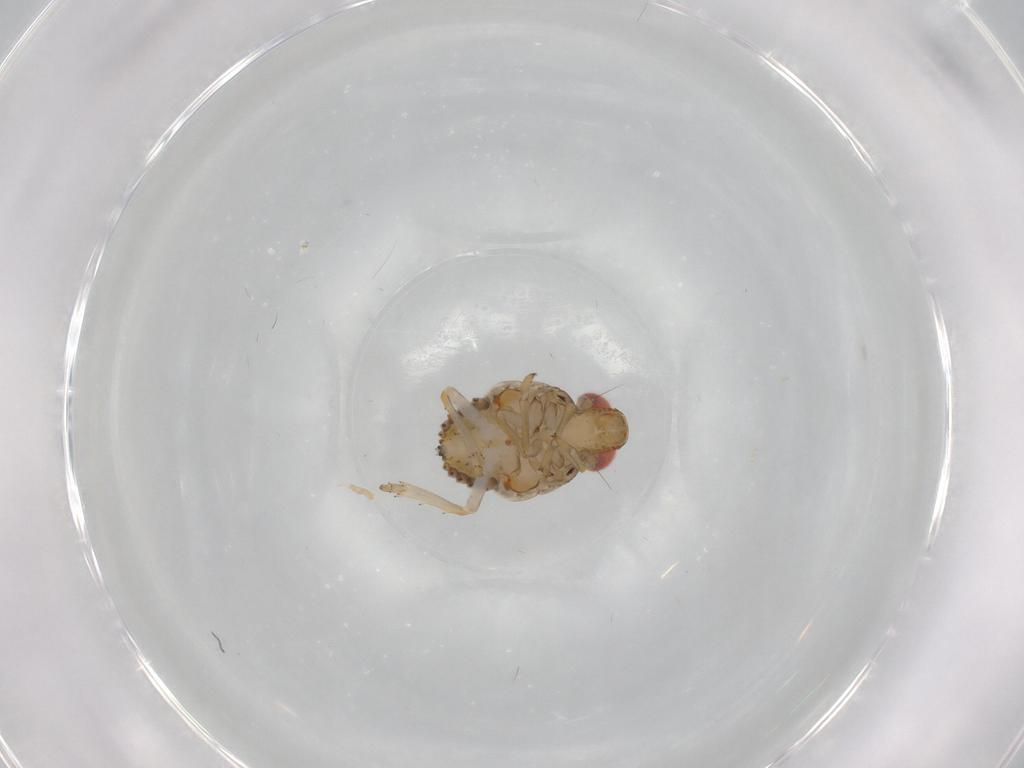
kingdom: Animalia
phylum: Arthropoda
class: Insecta
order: Hemiptera
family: Issidae
